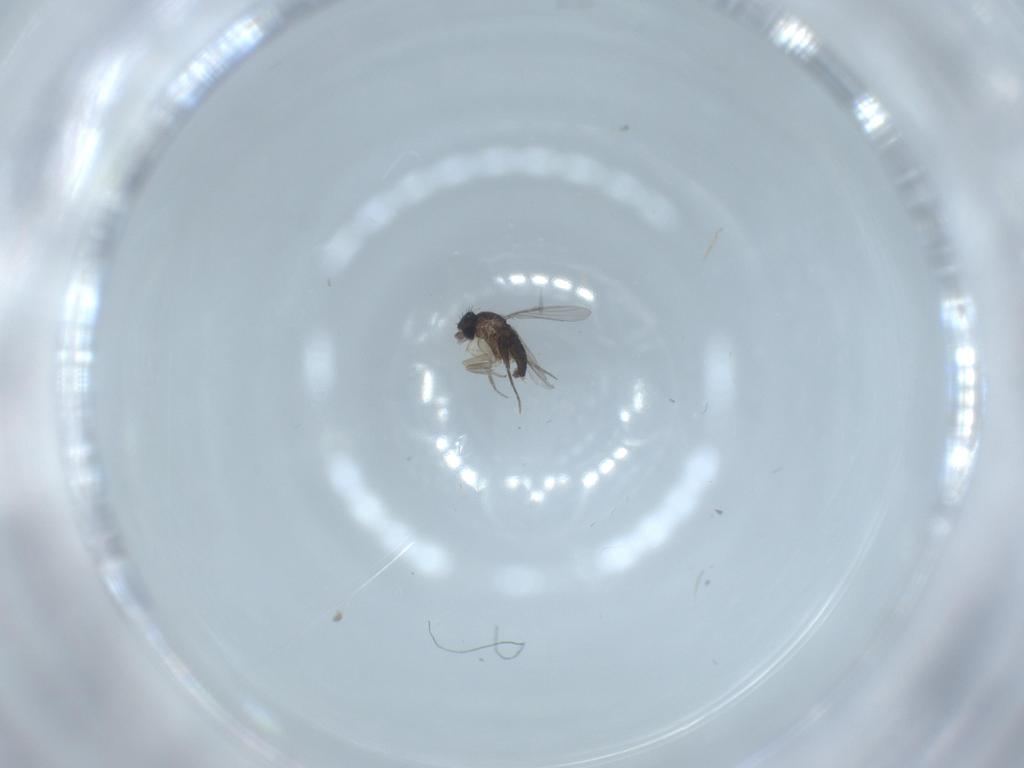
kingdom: Animalia
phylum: Arthropoda
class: Insecta
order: Diptera
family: Phoridae
